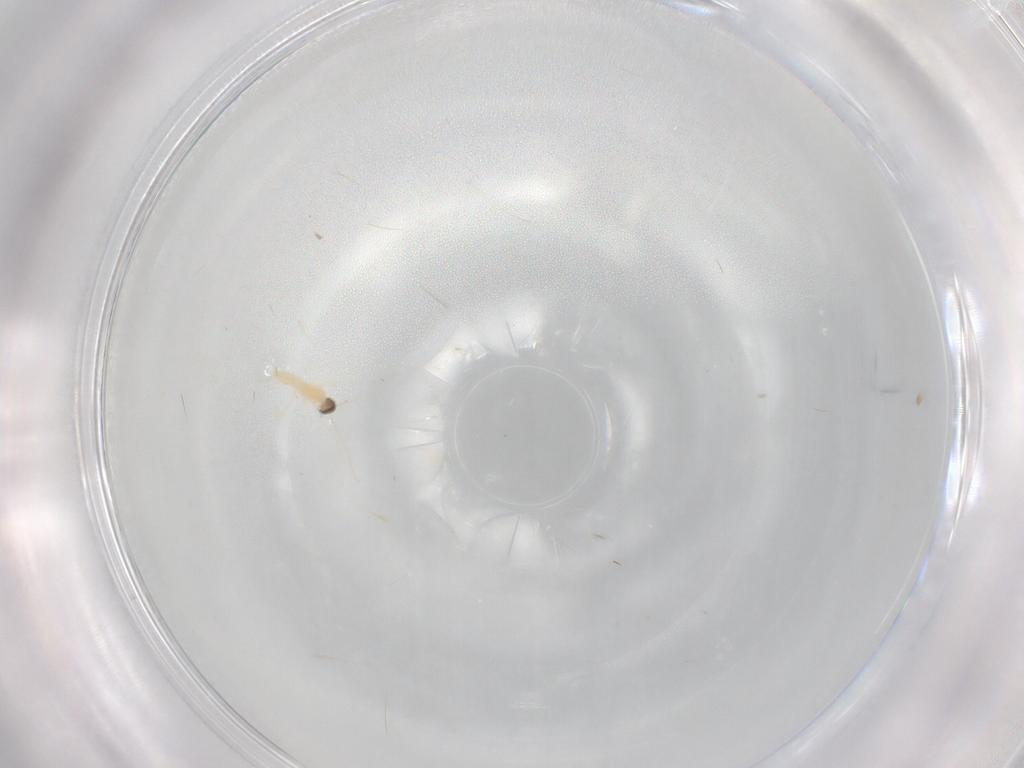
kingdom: Animalia
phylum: Arthropoda
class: Insecta
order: Diptera
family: Cecidomyiidae
